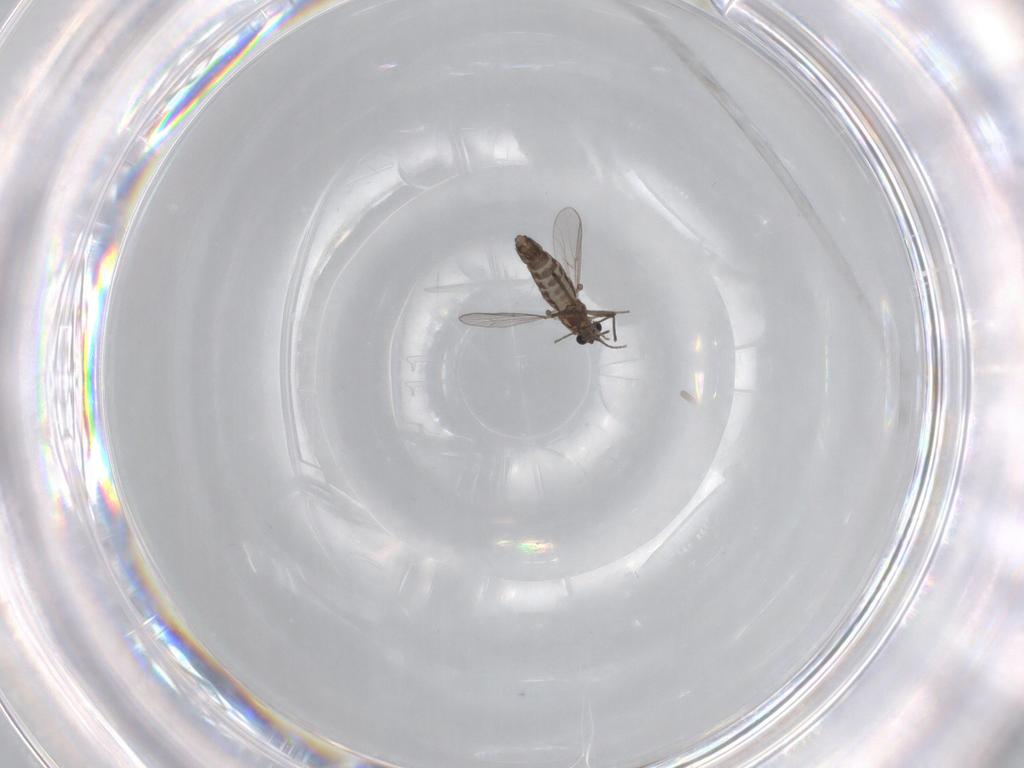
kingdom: Animalia
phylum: Arthropoda
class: Insecta
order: Diptera
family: Chironomidae
